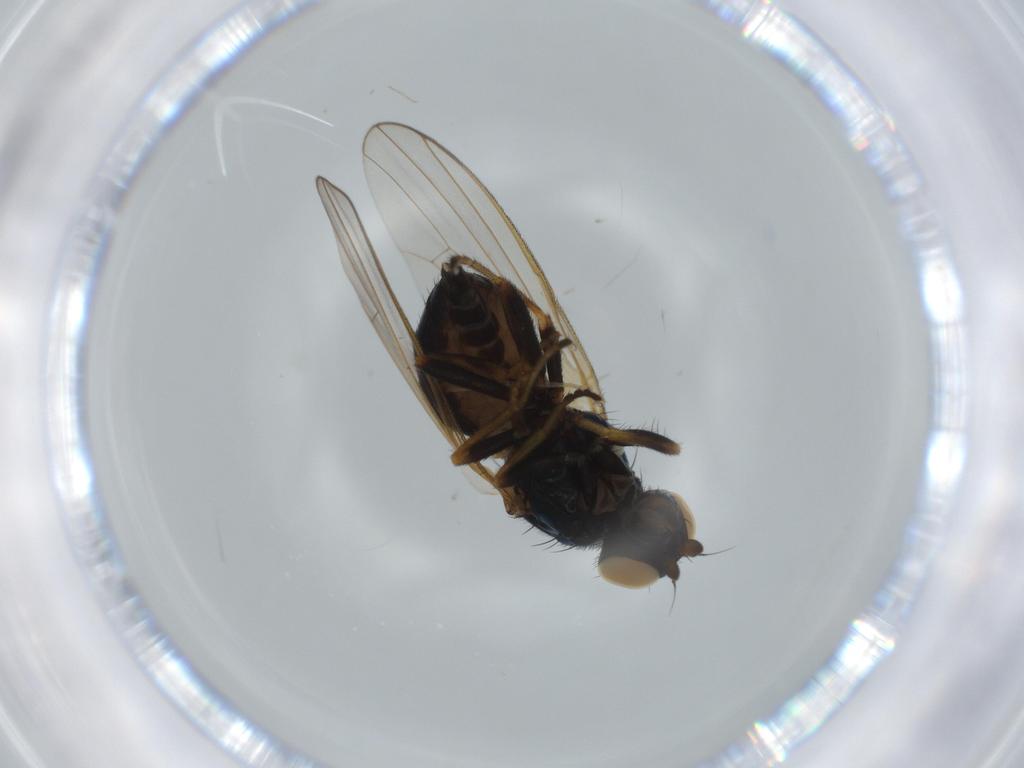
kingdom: Animalia
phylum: Arthropoda
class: Insecta
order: Diptera
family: Piophilidae
